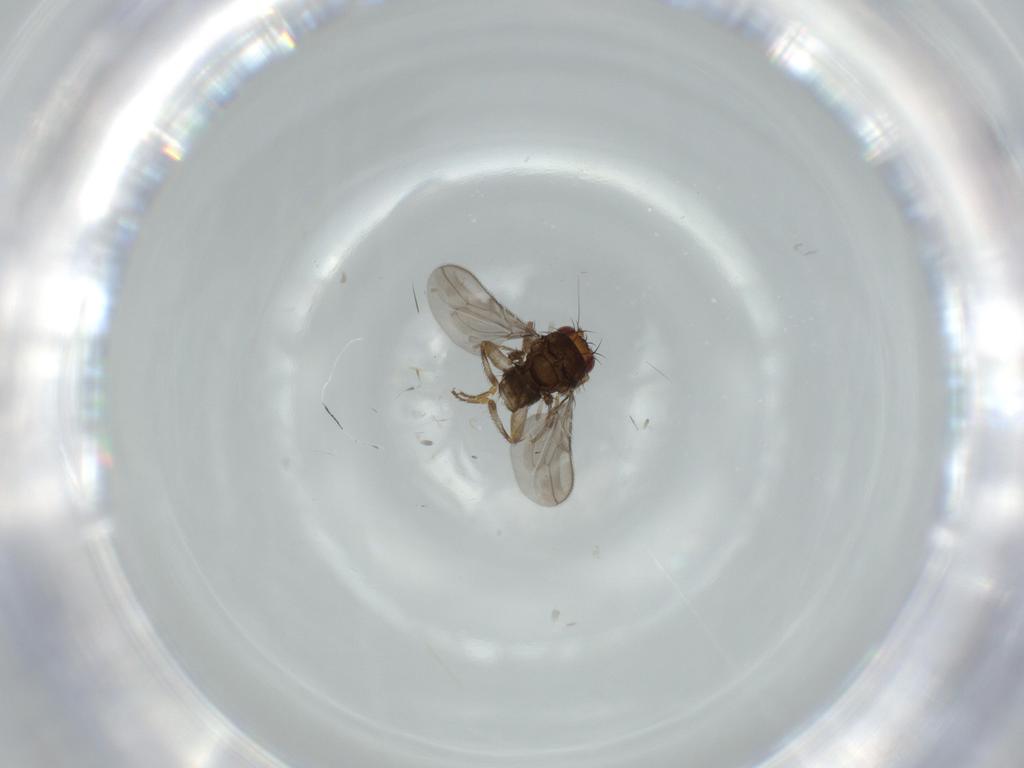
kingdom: Animalia
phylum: Arthropoda
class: Insecta
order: Diptera
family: Sphaeroceridae
